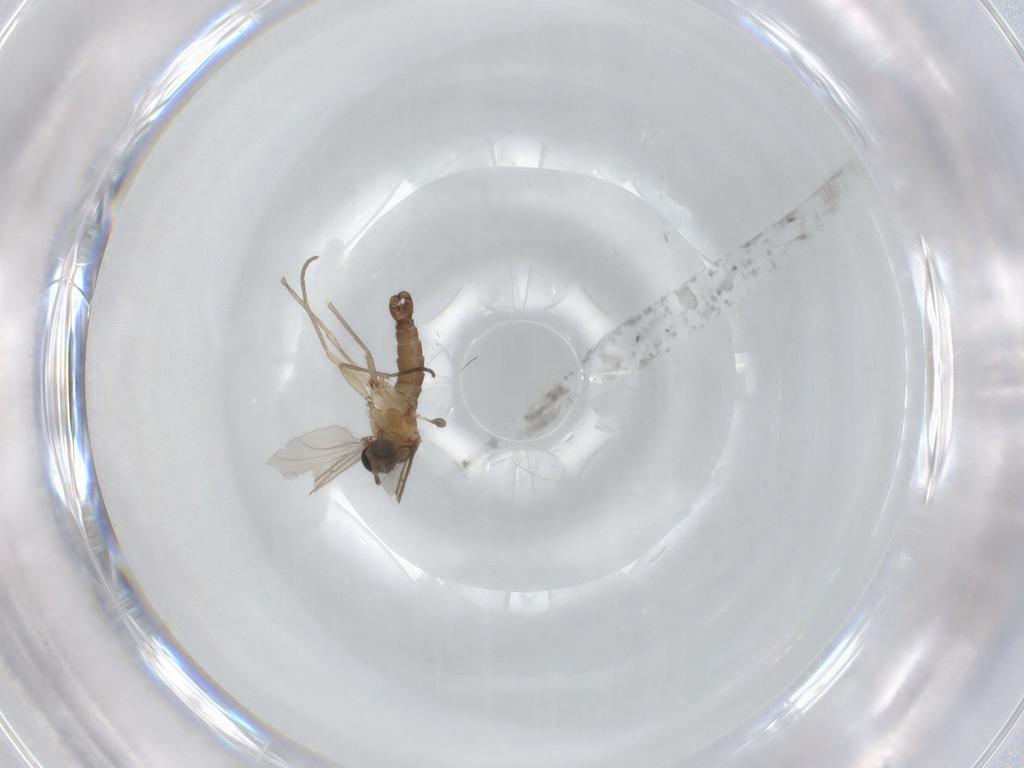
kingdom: Animalia
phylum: Arthropoda
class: Insecta
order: Diptera
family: Sciaridae
